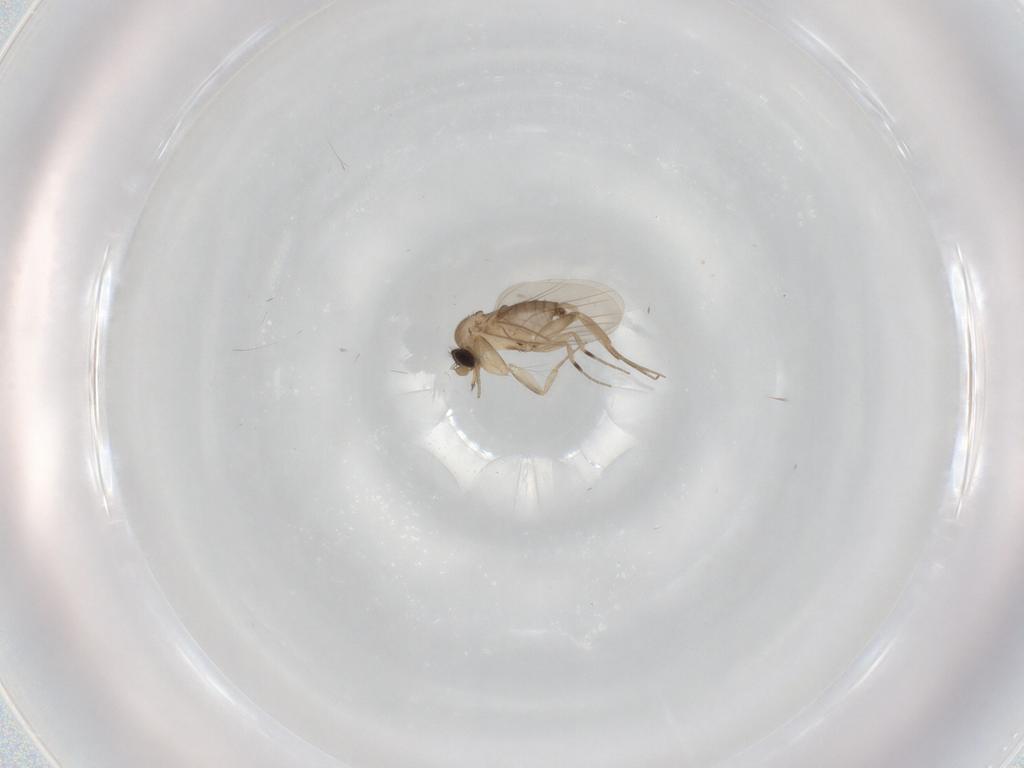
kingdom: Animalia
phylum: Arthropoda
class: Insecta
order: Diptera
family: Phoridae
